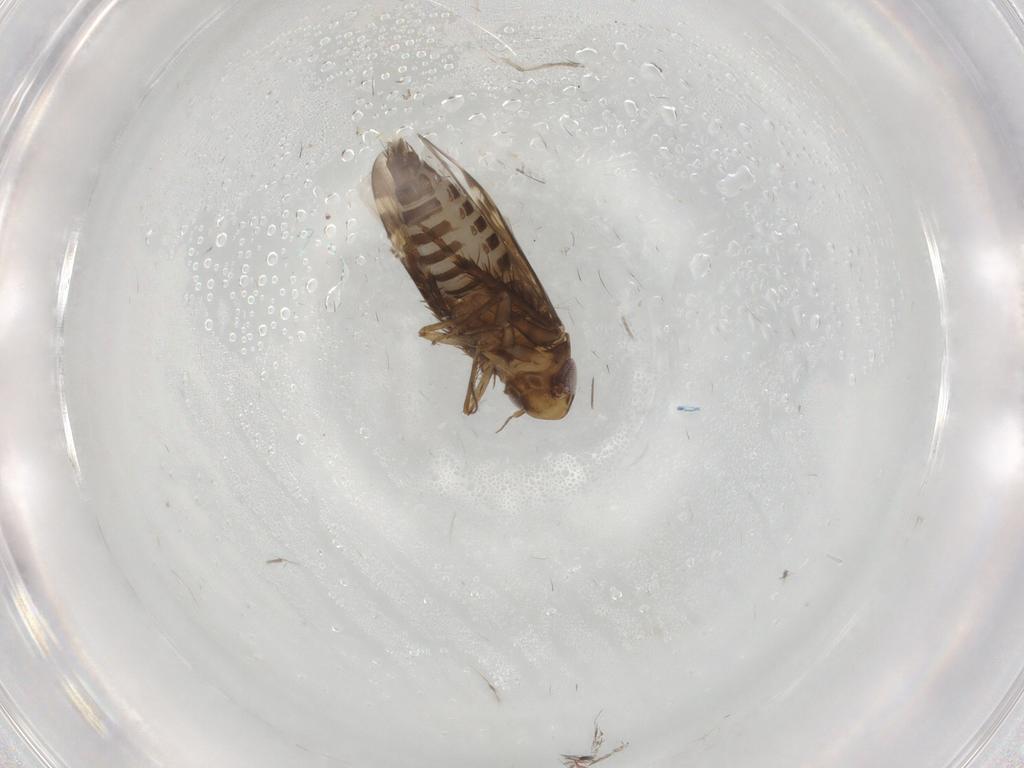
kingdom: Animalia
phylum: Arthropoda
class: Insecta
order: Hemiptera
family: Cicadellidae
